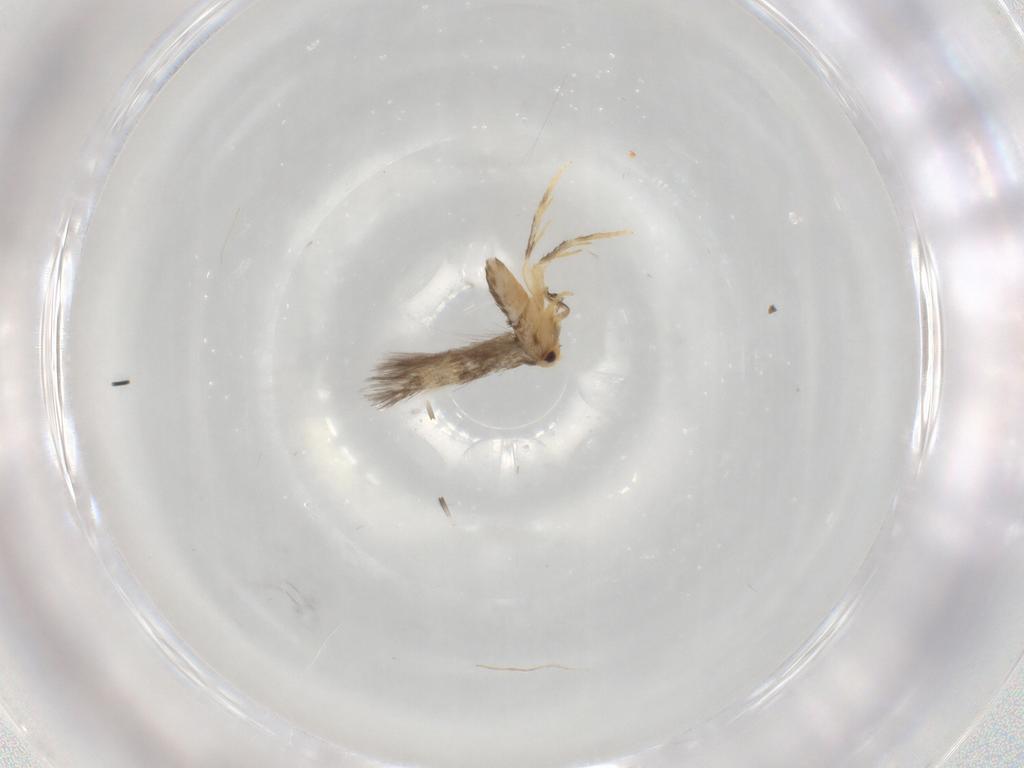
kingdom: Animalia
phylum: Arthropoda
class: Insecta
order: Lepidoptera
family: Nepticulidae
